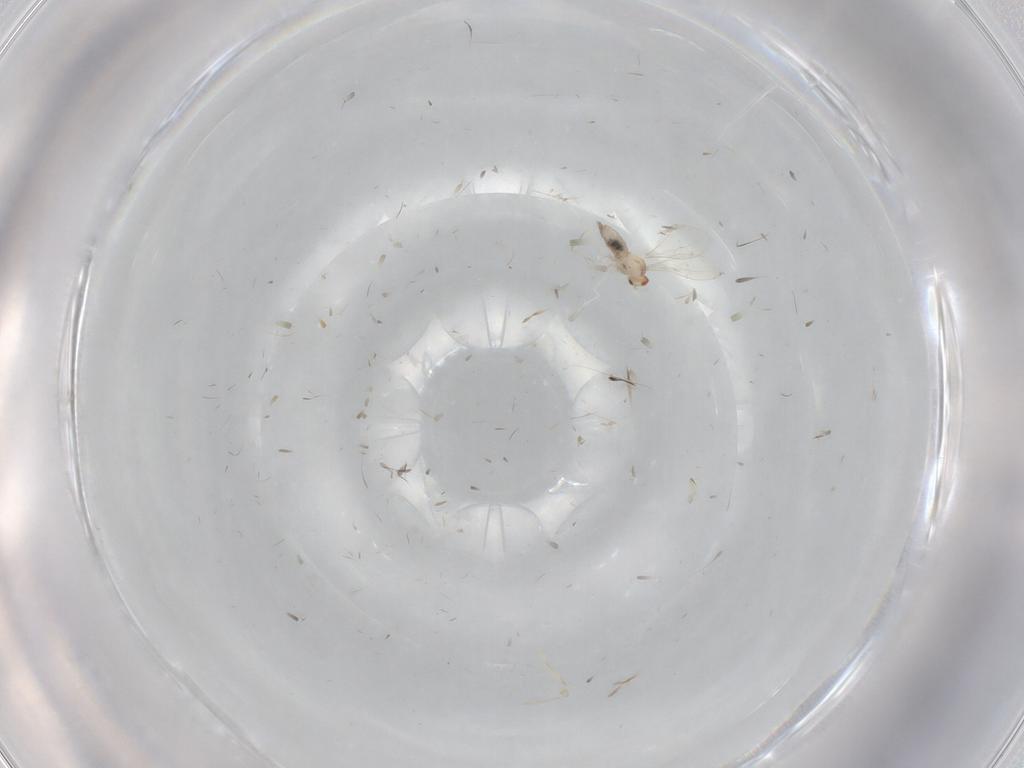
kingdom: Animalia
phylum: Arthropoda
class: Insecta
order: Diptera
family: Cecidomyiidae
